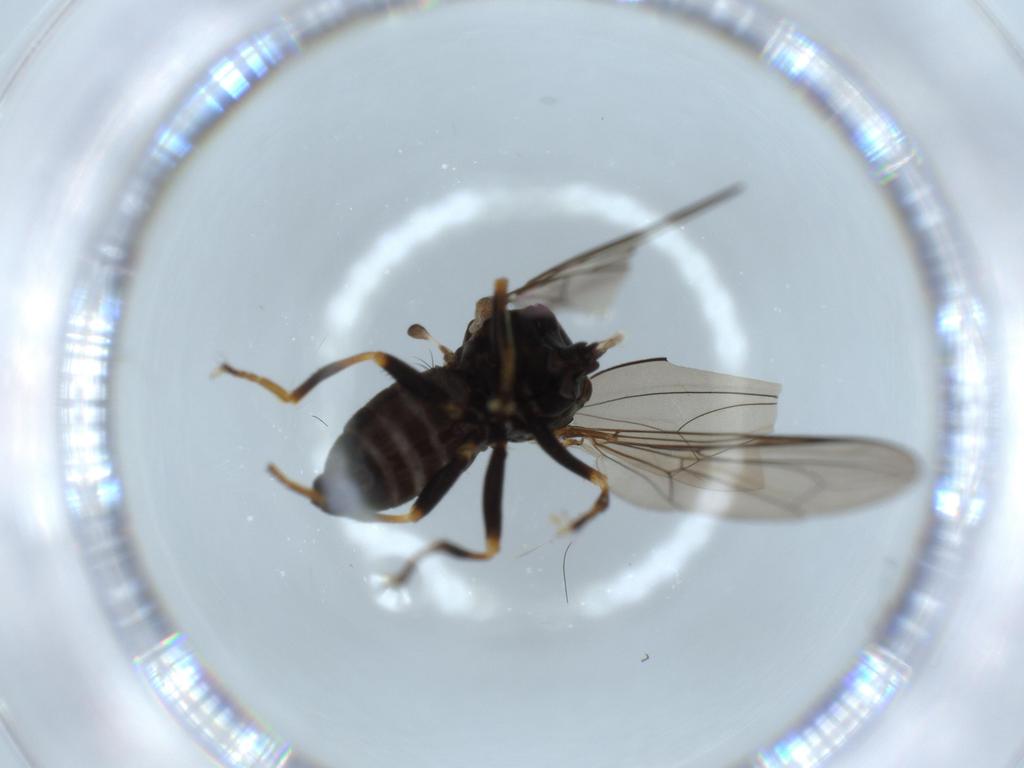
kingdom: Animalia
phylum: Arthropoda
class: Insecta
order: Diptera
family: Pipunculidae
